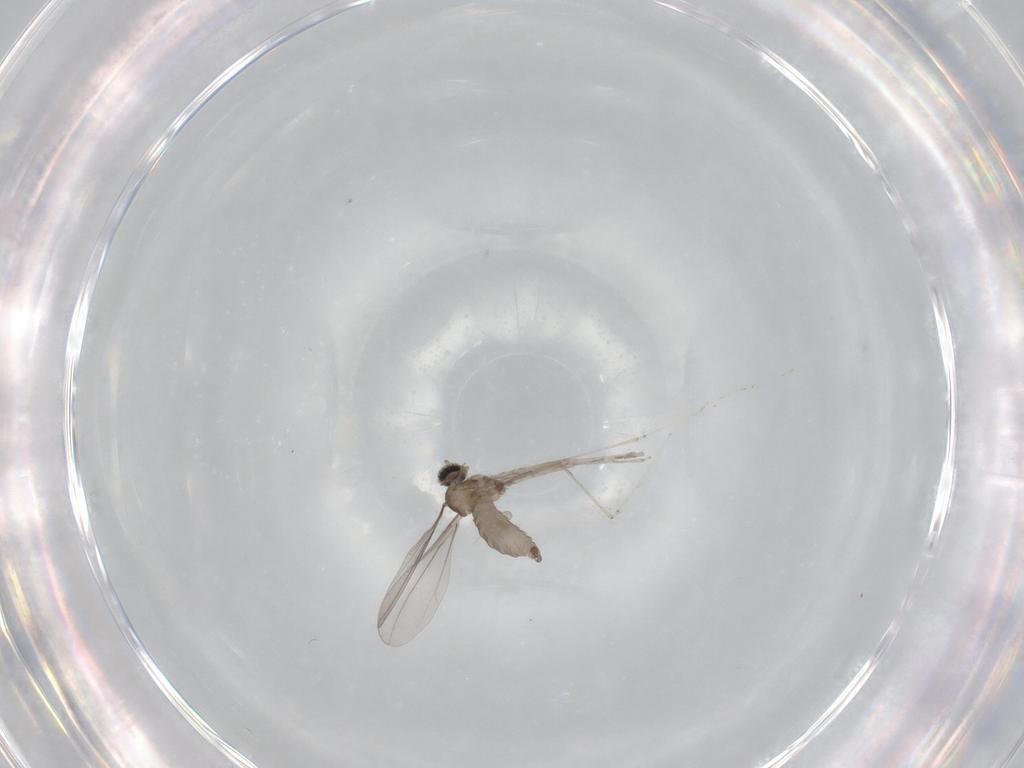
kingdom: Animalia
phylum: Arthropoda
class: Insecta
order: Diptera
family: Cecidomyiidae
